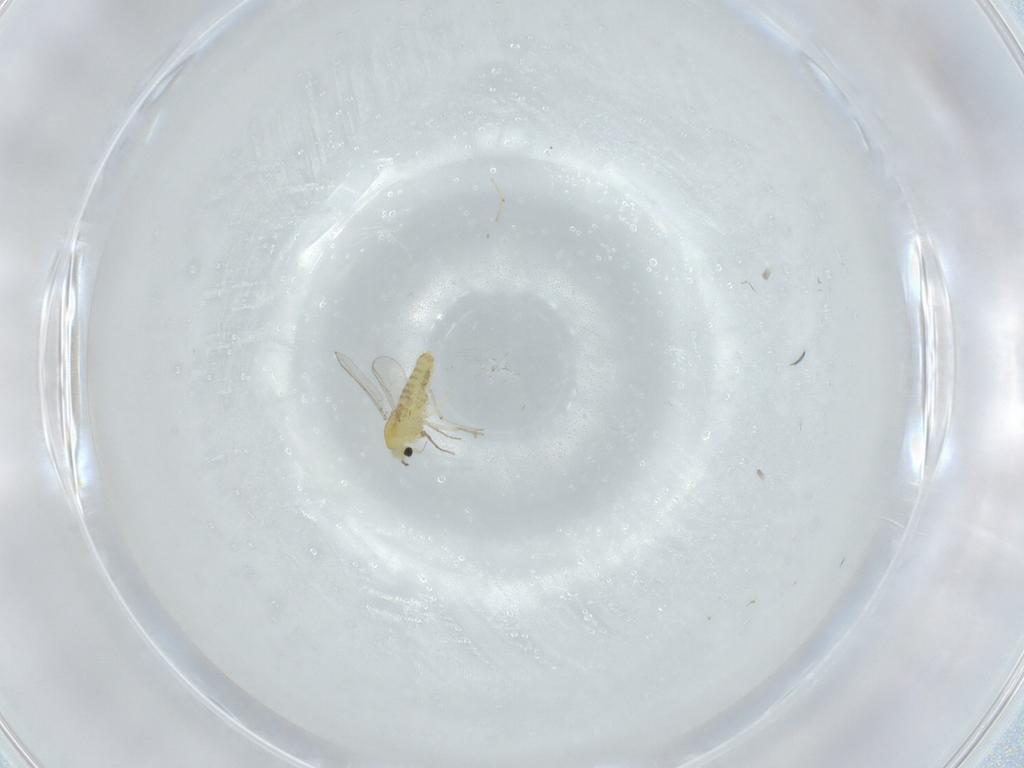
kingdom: Animalia
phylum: Arthropoda
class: Insecta
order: Diptera
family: Chironomidae
